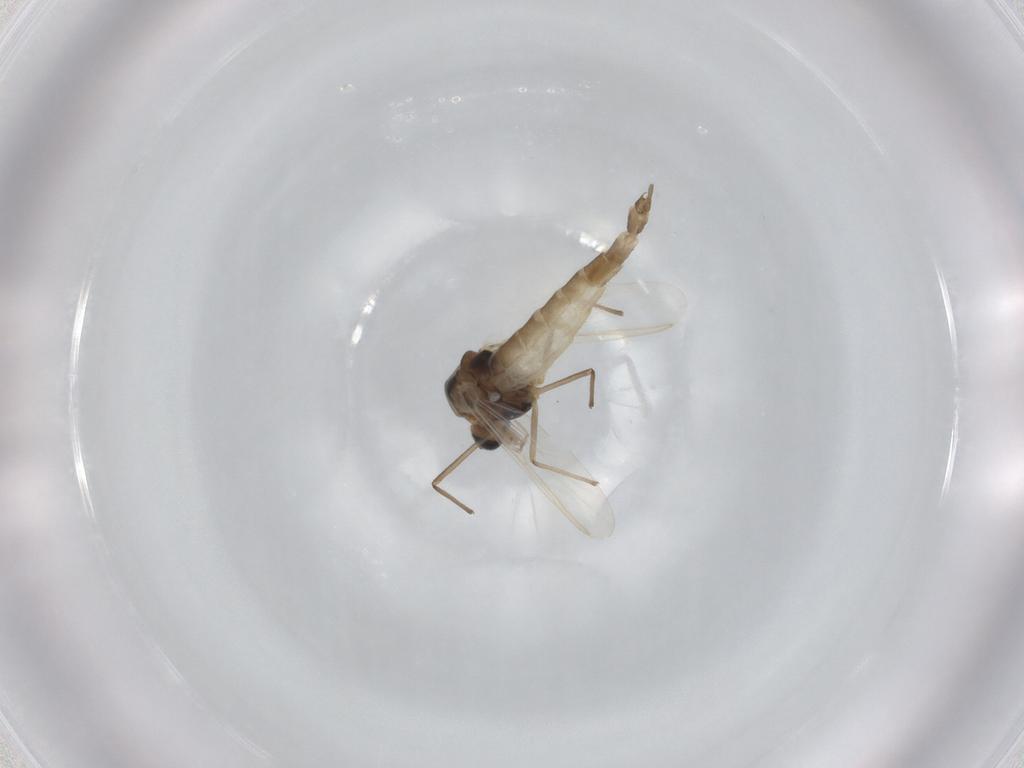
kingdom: Animalia
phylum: Arthropoda
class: Insecta
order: Diptera
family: Chironomidae
